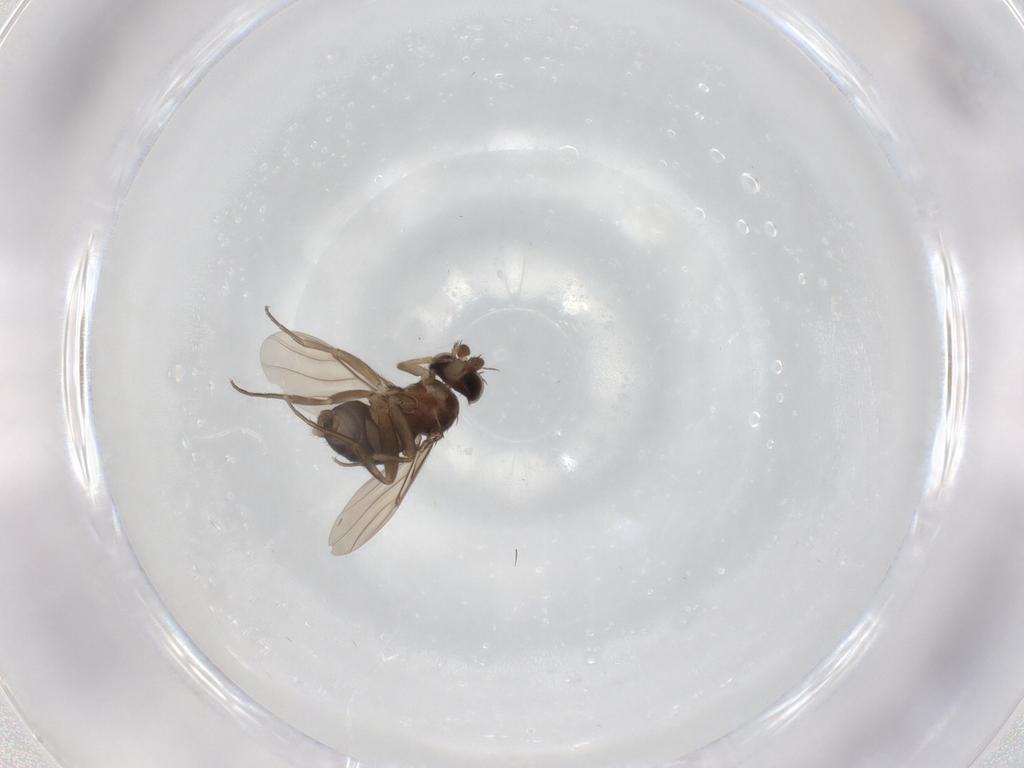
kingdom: Animalia
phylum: Arthropoda
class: Insecta
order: Diptera
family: Phoridae
